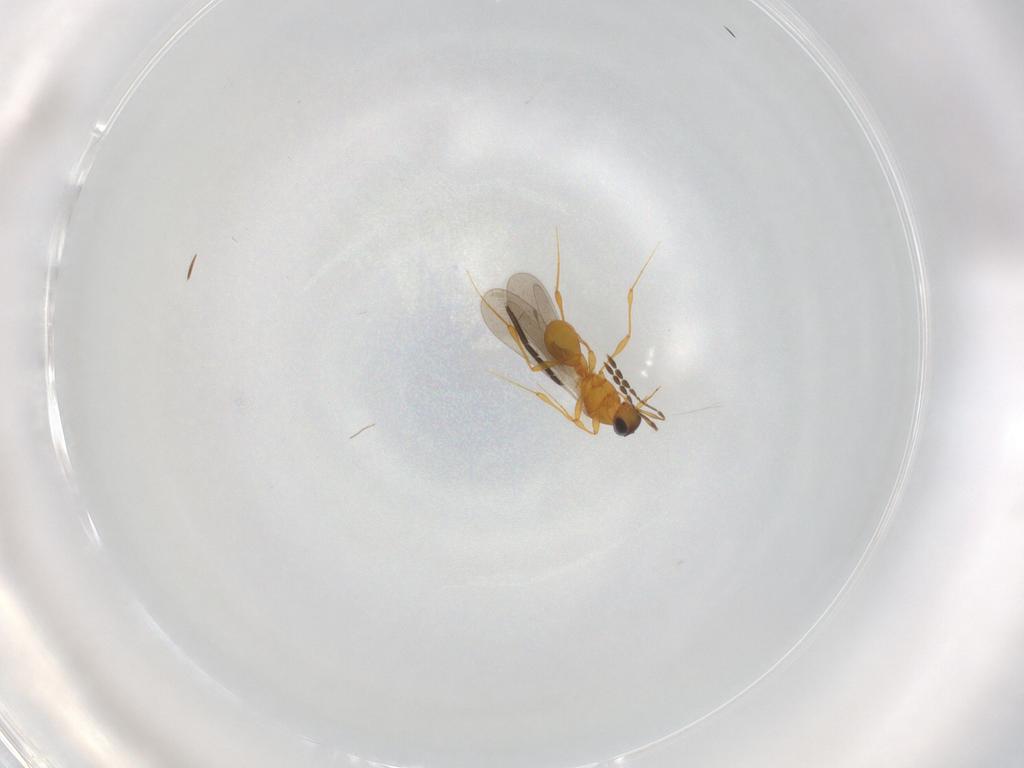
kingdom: Animalia
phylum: Arthropoda
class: Insecta
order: Hymenoptera
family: Platygastridae
